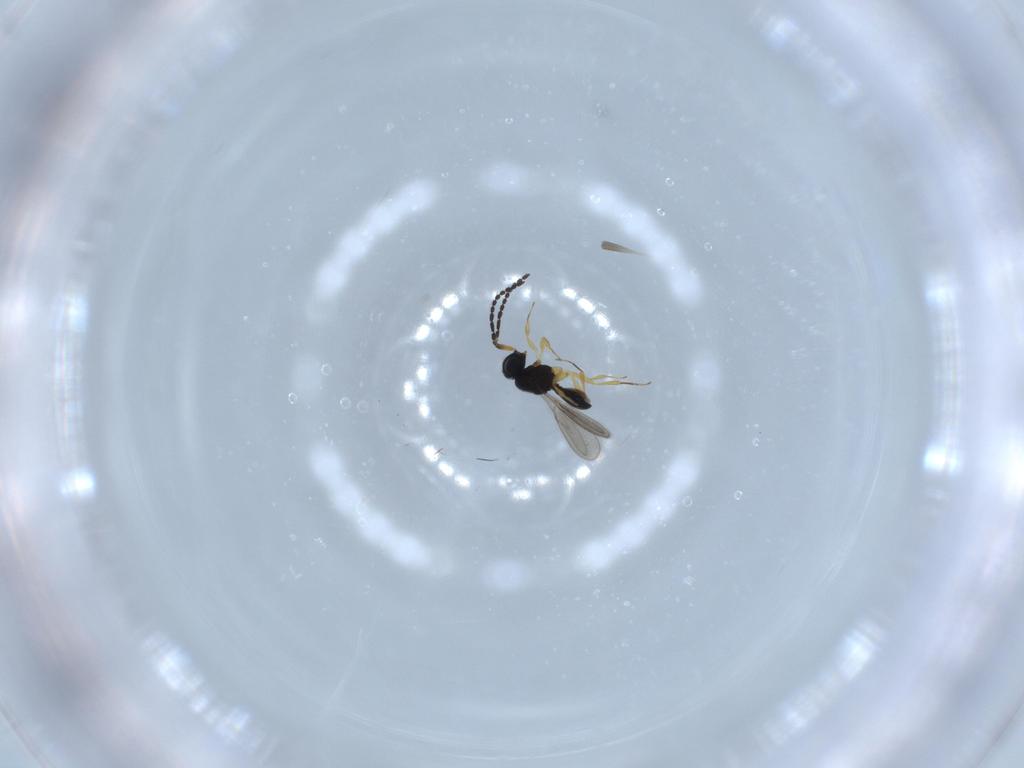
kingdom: Animalia
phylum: Arthropoda
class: Insecta
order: Hymenoptera
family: Scelionidae
